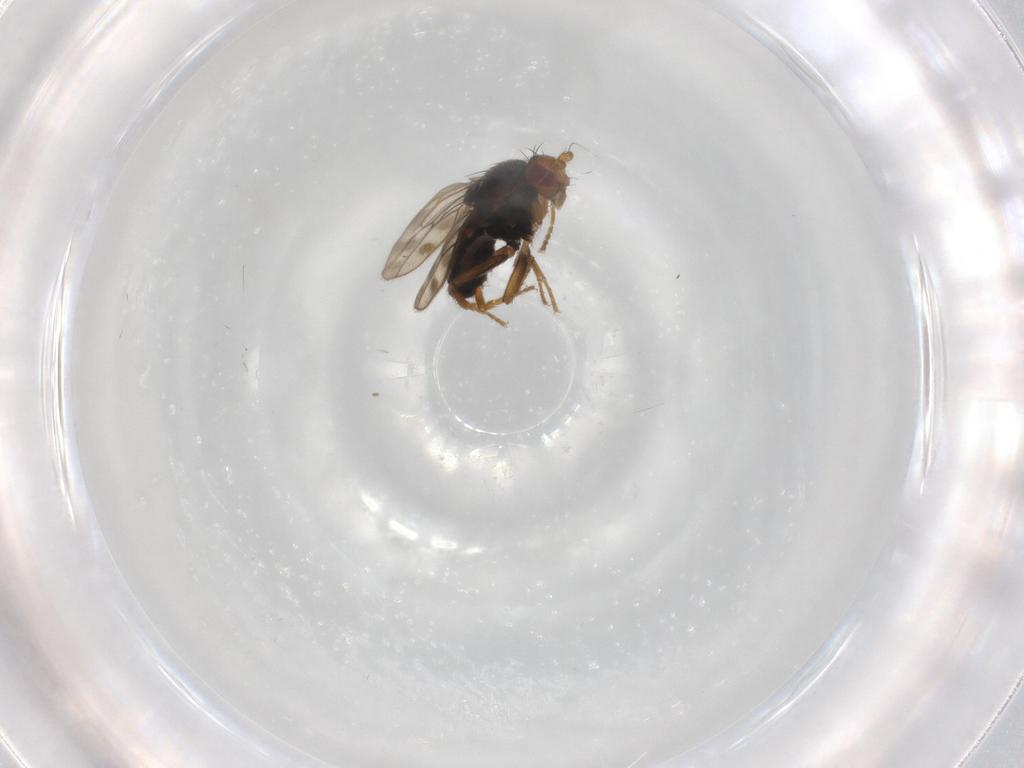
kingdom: Animalia
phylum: Arthropoda
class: Insecta
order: Diptera
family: Sphaeroceridae
